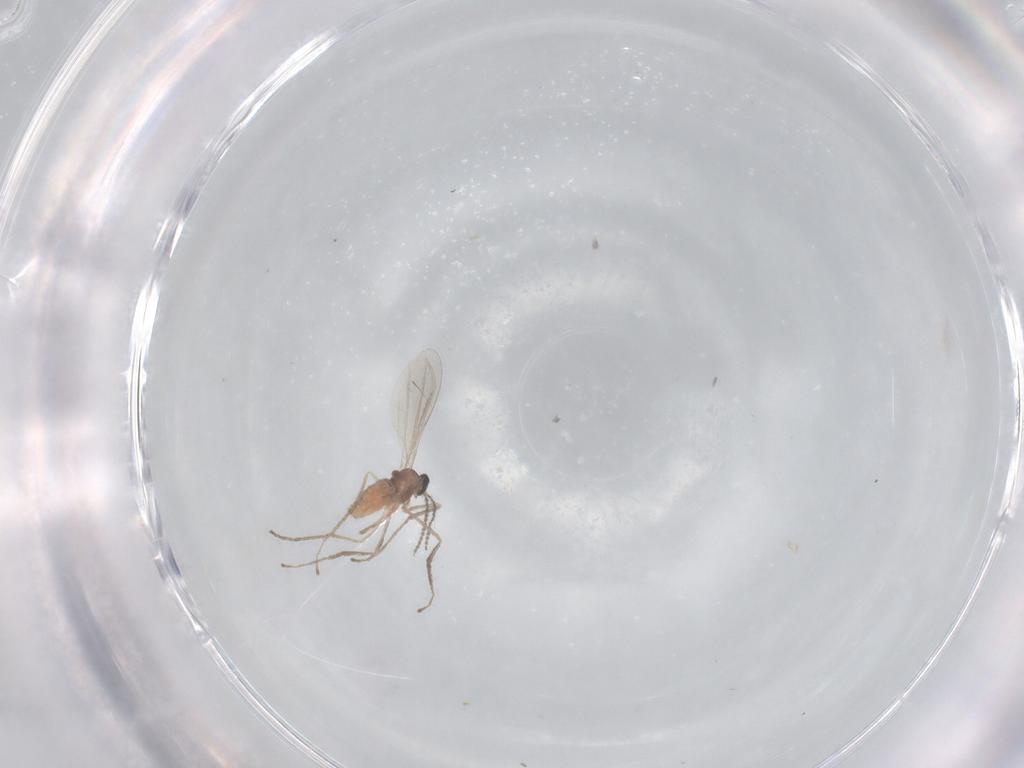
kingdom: Animalia
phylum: Arthropoda
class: Insecta
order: Diptera
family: Cecidomyiidae
